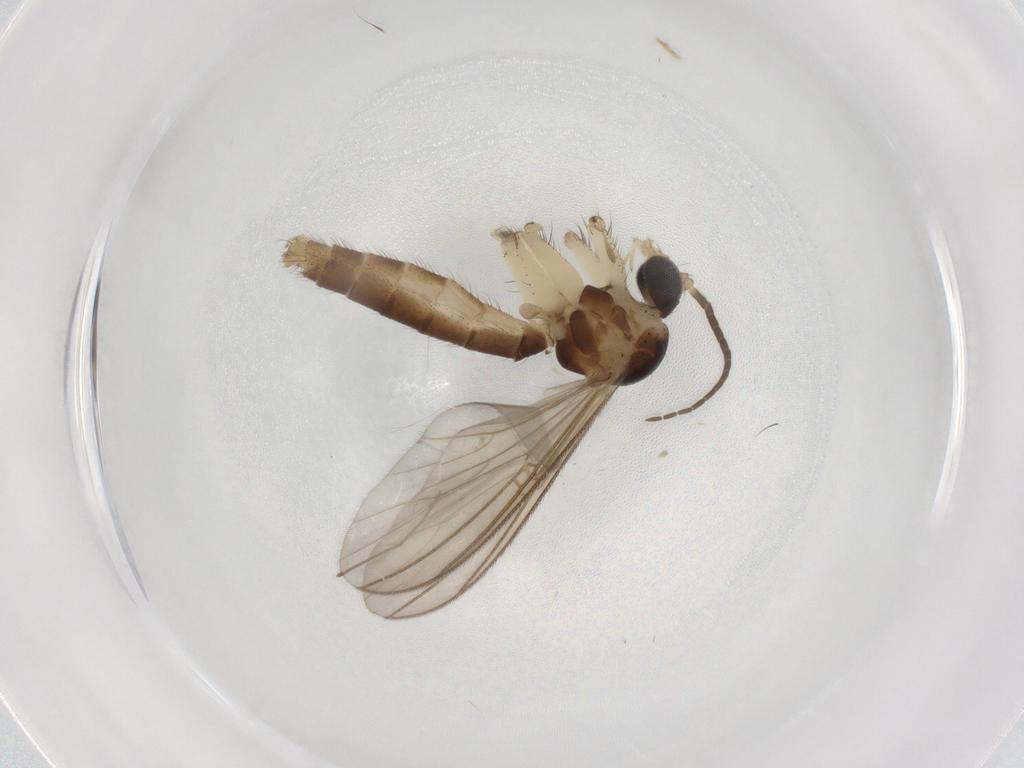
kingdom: Animalia
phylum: Arthropoda
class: Insecta
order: Diptera
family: Mycetophilidae
